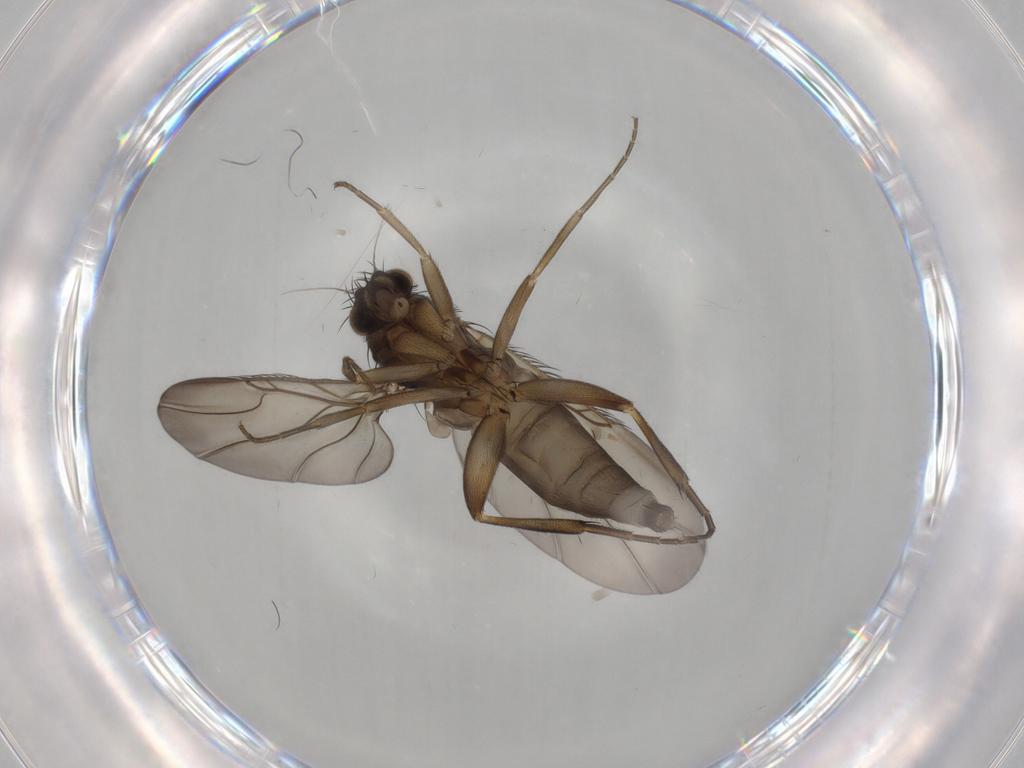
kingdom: Animalia
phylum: Arthropoda
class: Insecta
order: Diptera
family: Phoridae
